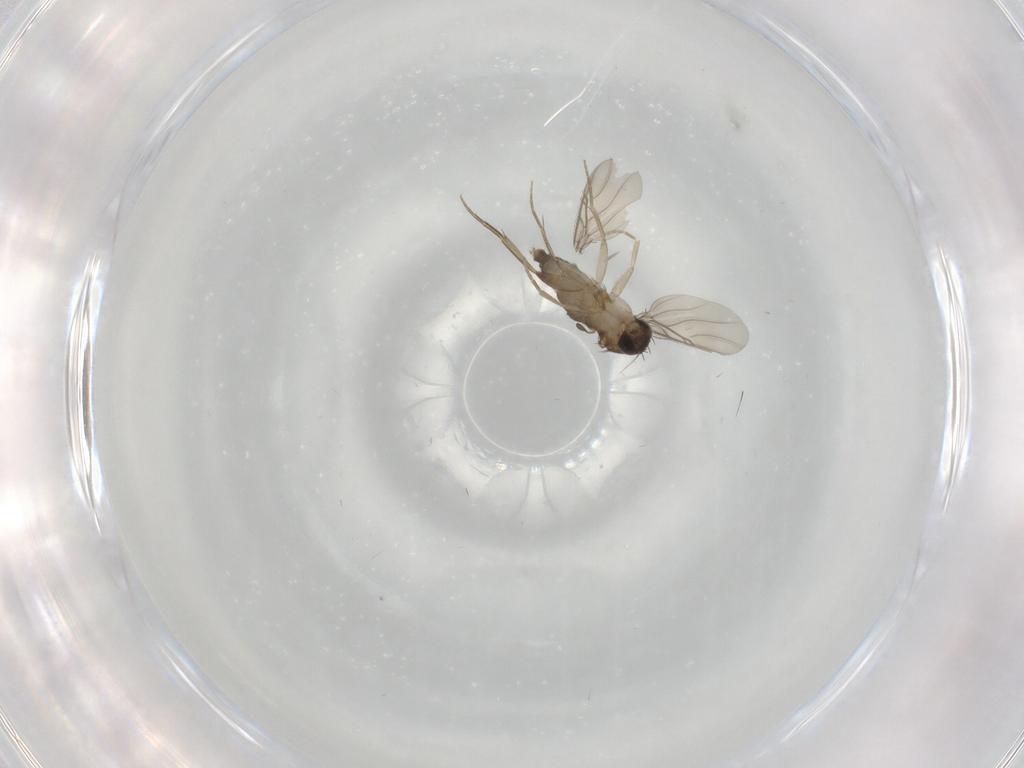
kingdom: Animalia
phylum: Arthropoda
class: Insecta
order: Diptera
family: Phoridae
